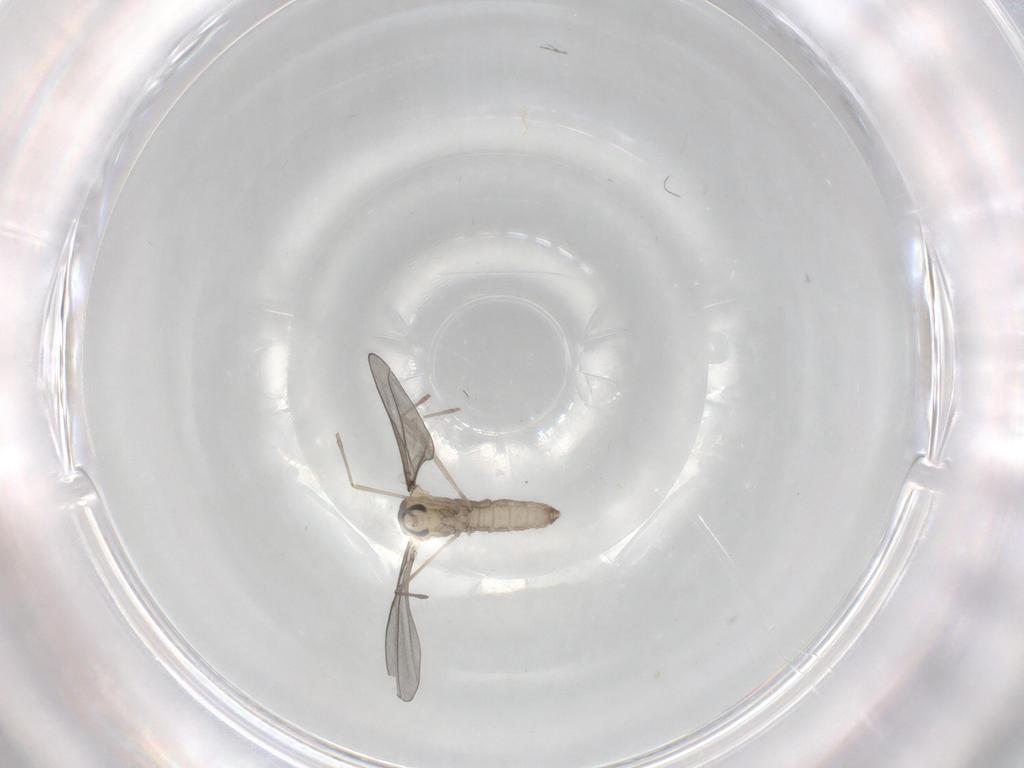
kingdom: Animalia
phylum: Arthropoda
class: Insecta
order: Diptera
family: Cecidomyiidae
